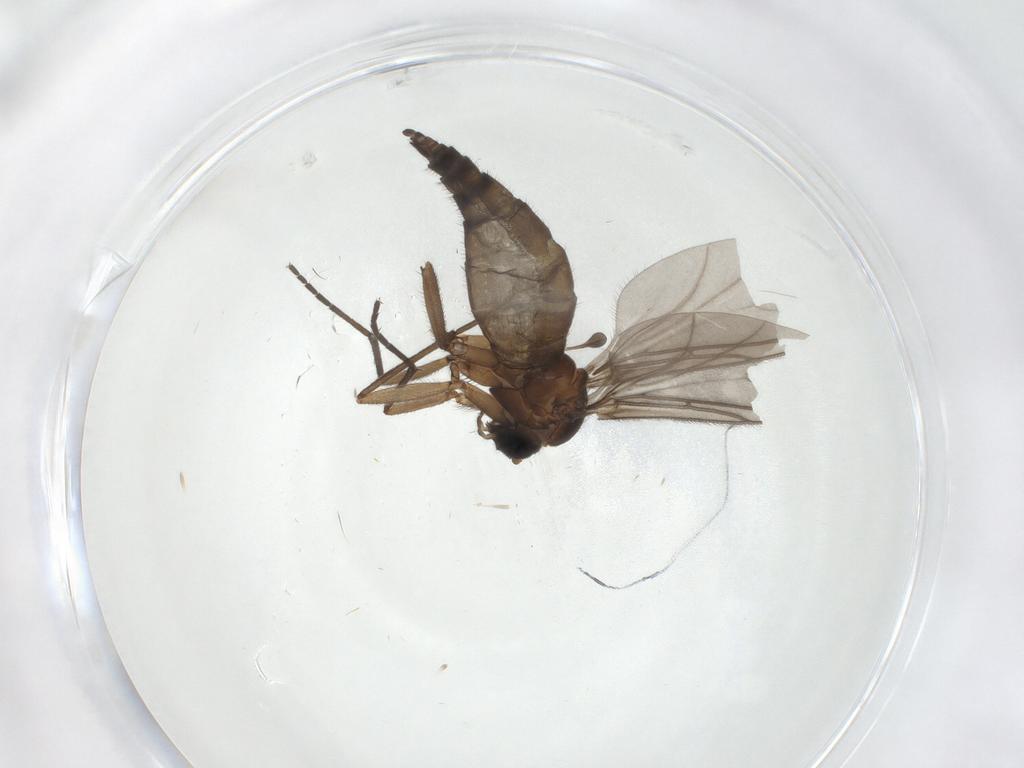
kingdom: Animalia
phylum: Arthropoda
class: Insecta
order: Diptera
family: Sciaridae
